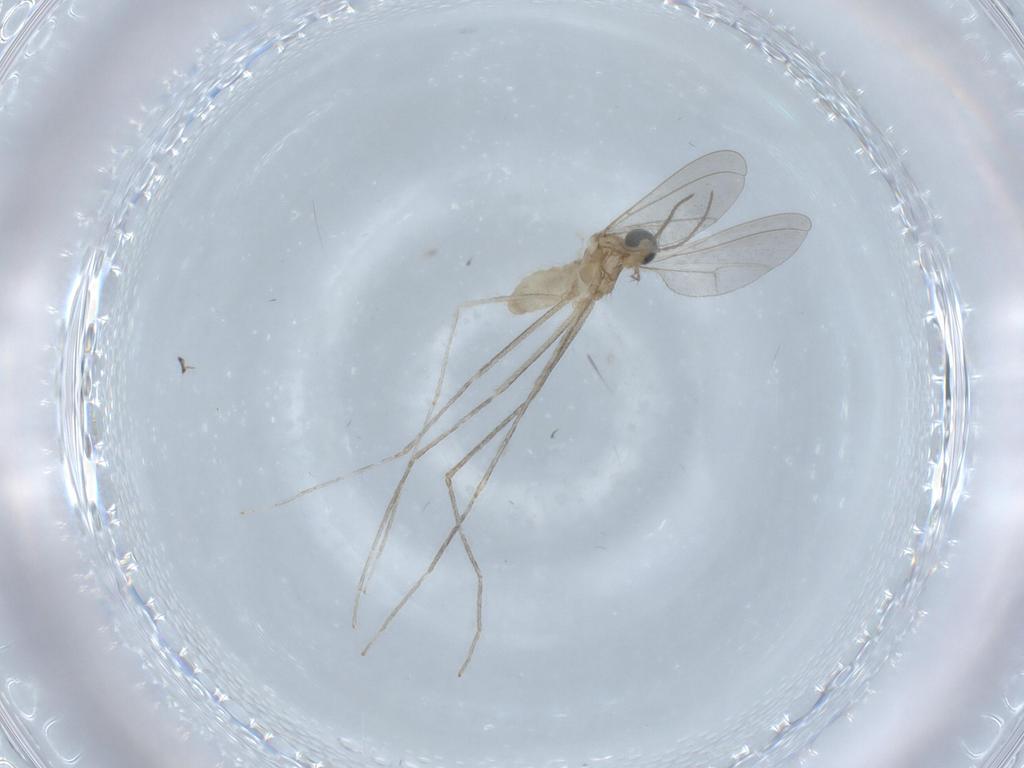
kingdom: Animalia
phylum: Arthropoda
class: Insecta
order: Diptera
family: Cecidomyiidae
